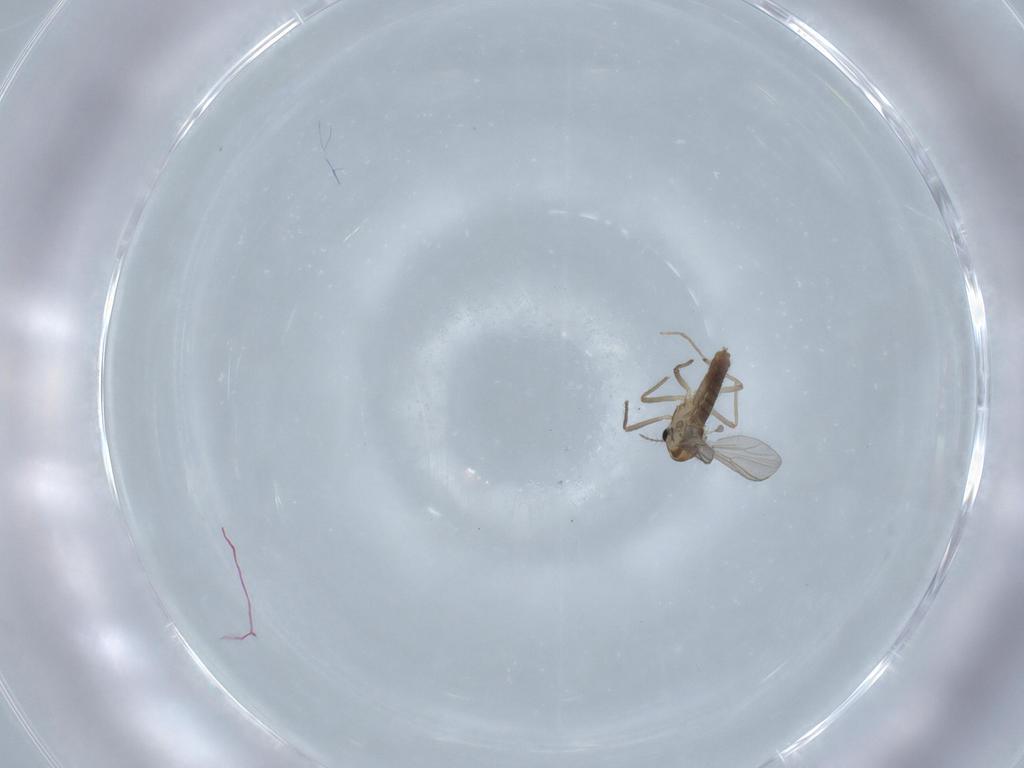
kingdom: Animalia
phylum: Arthropoda
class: Insecta
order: Diptera
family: Chironomidae
